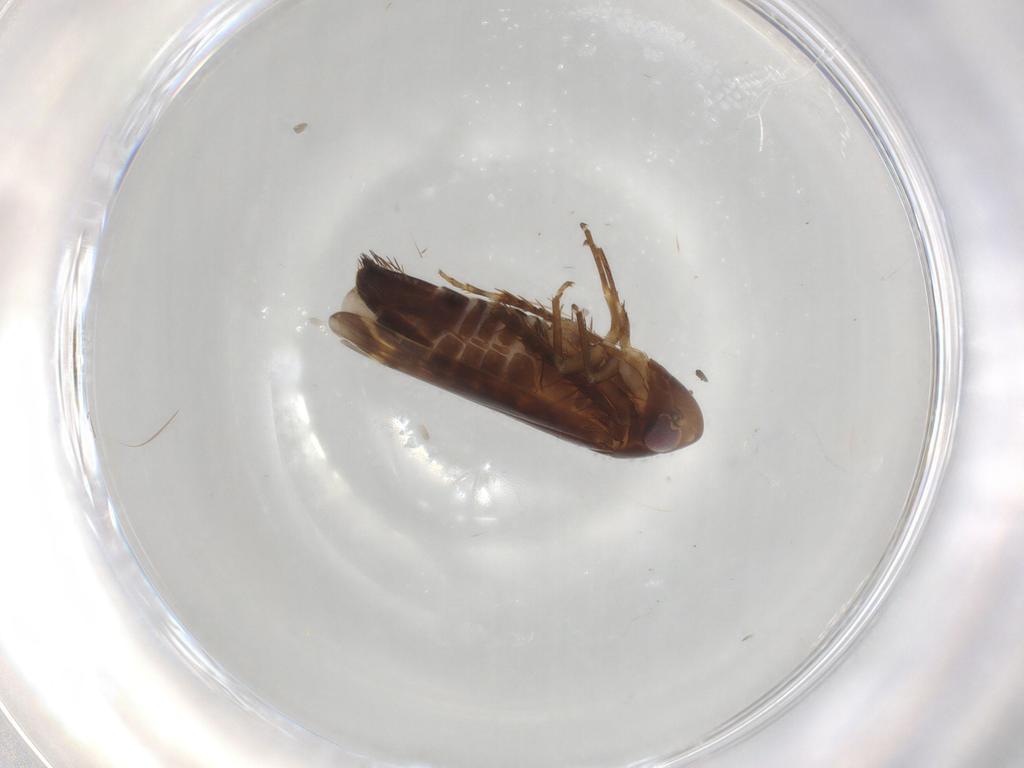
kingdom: Animalia
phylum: Arthropoda
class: Insecta
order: Hemiptera
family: Cicadellidae
